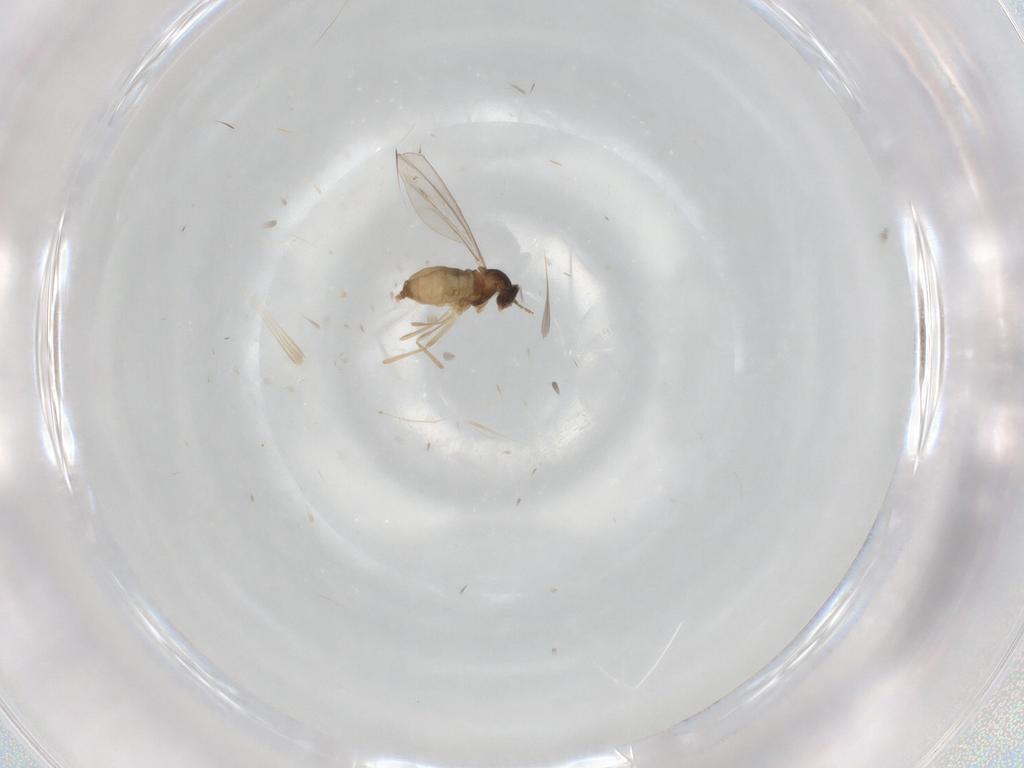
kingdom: Animalia
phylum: Arthropoda
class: Insecta
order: Diptera
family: Cecidomyiidae
